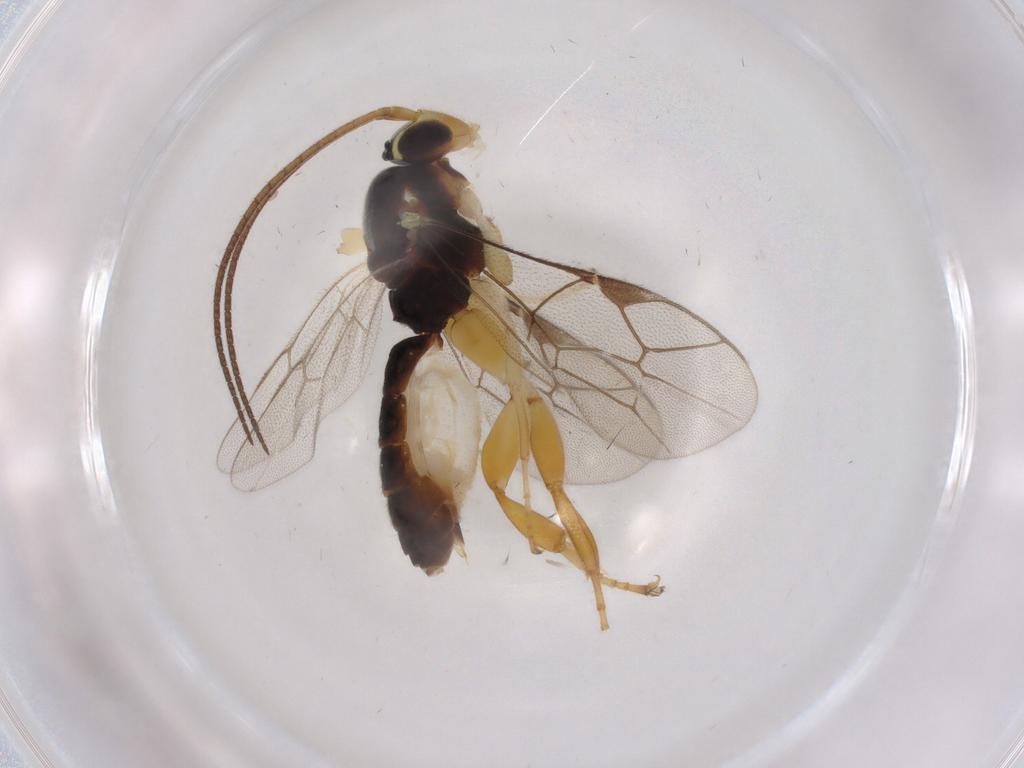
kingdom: Animalia
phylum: Arthropoda
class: Insecta
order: Hymenoptera
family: Ichneumonidae
